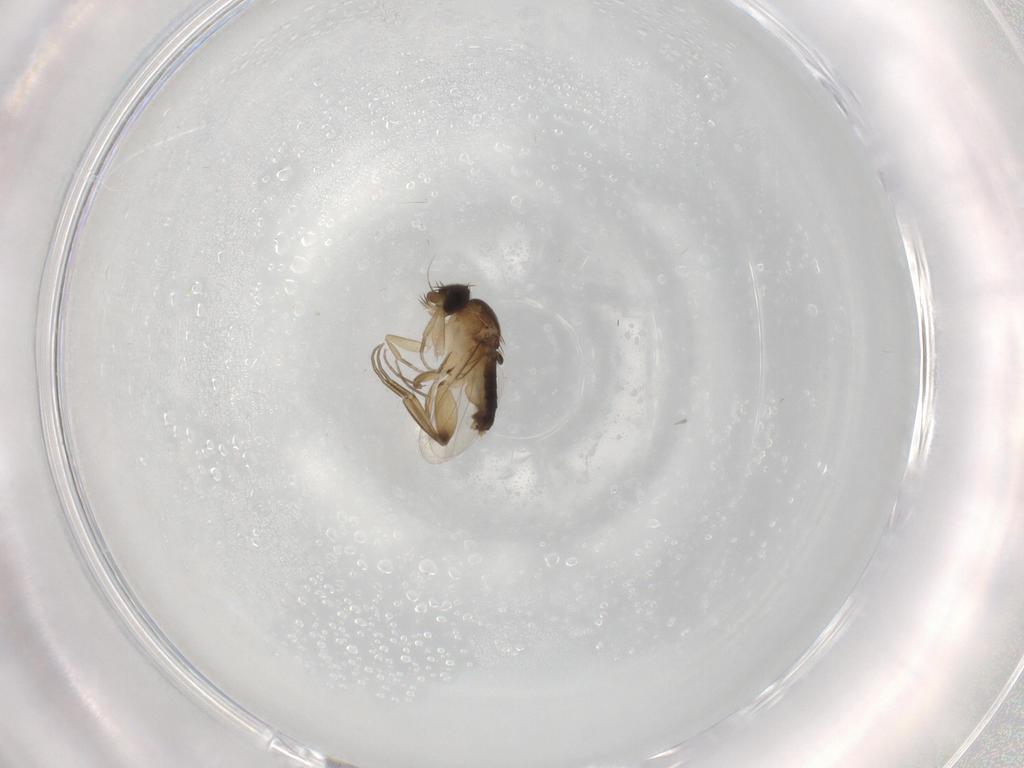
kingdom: Animalia
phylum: Arthropoda
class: Insecta
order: Diptera
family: Phoridae
